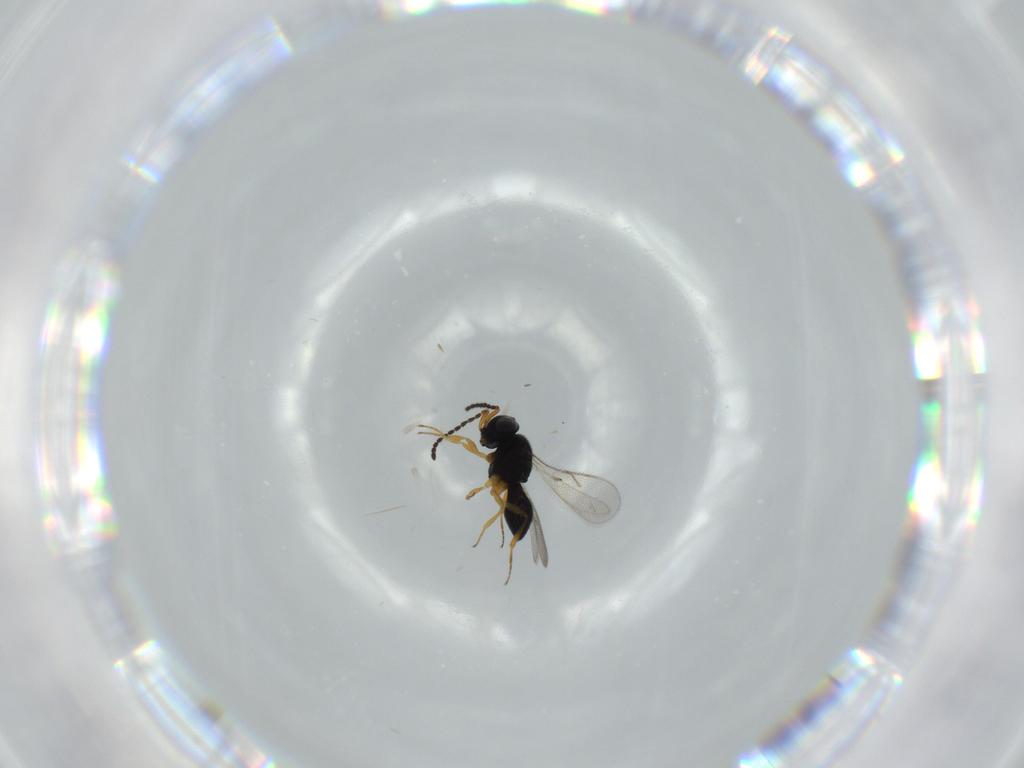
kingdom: Animalia
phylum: Arthropoda
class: Insecta
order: Hymenoptera
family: Scelionidae
